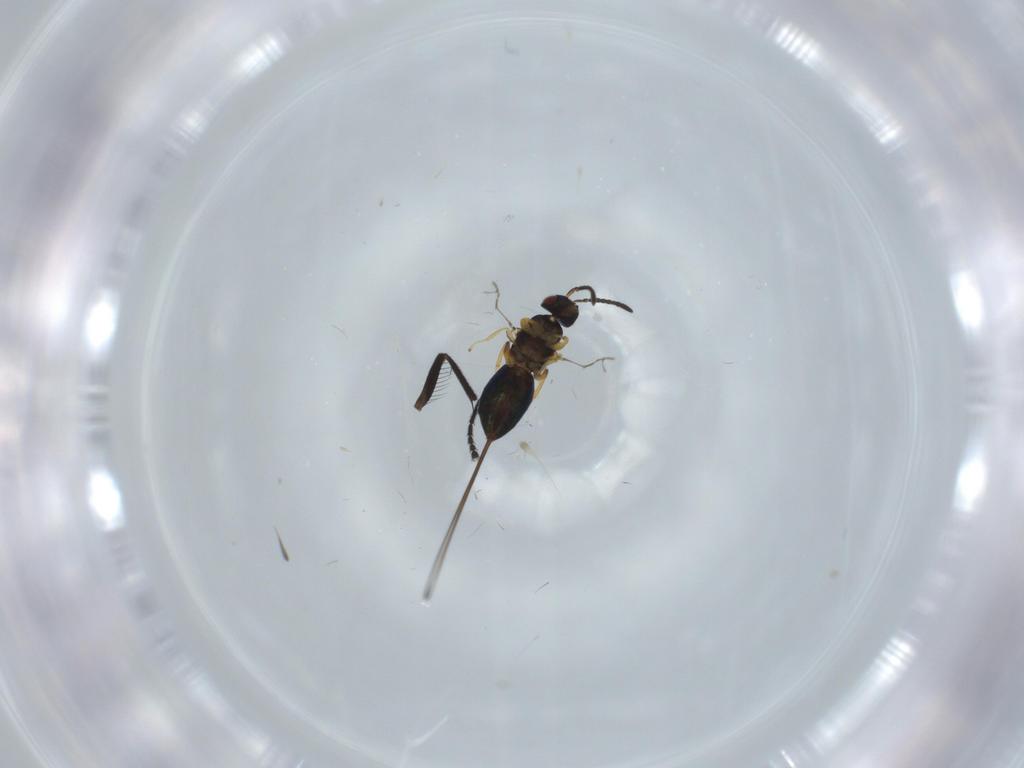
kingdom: Animalia
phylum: Arthropoda
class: Insecta
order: Hymenoptera
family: Agaonidae
